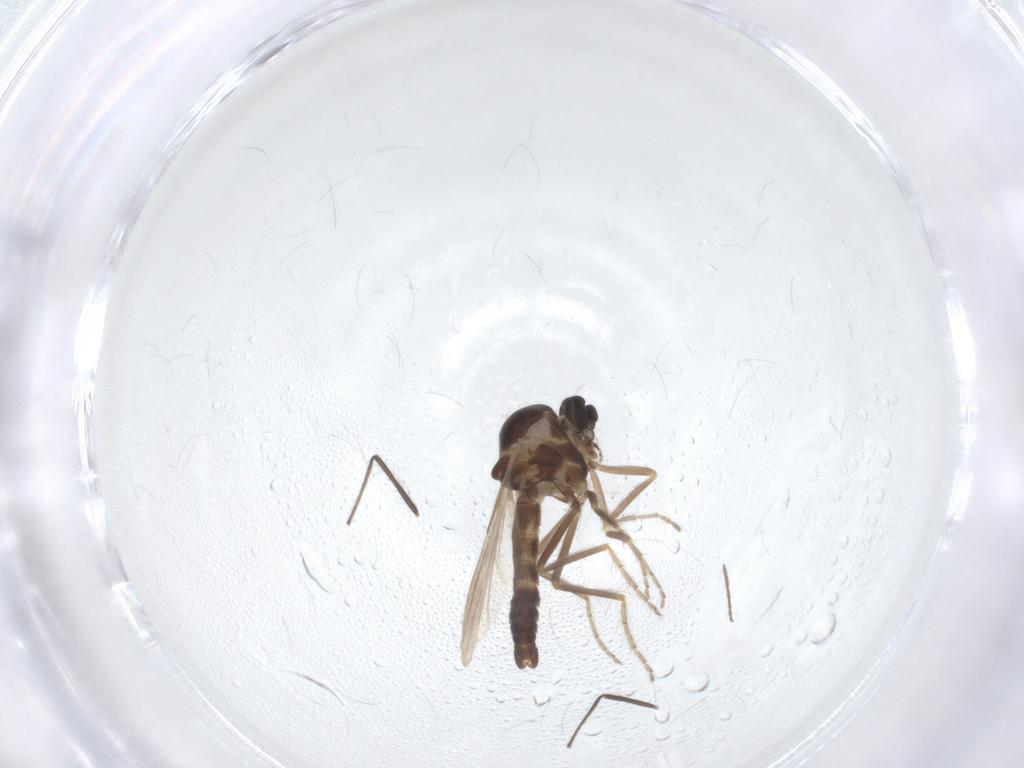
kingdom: Animalia
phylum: Arthropoda
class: Insecta
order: Diptera
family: Ceratopogonidae
